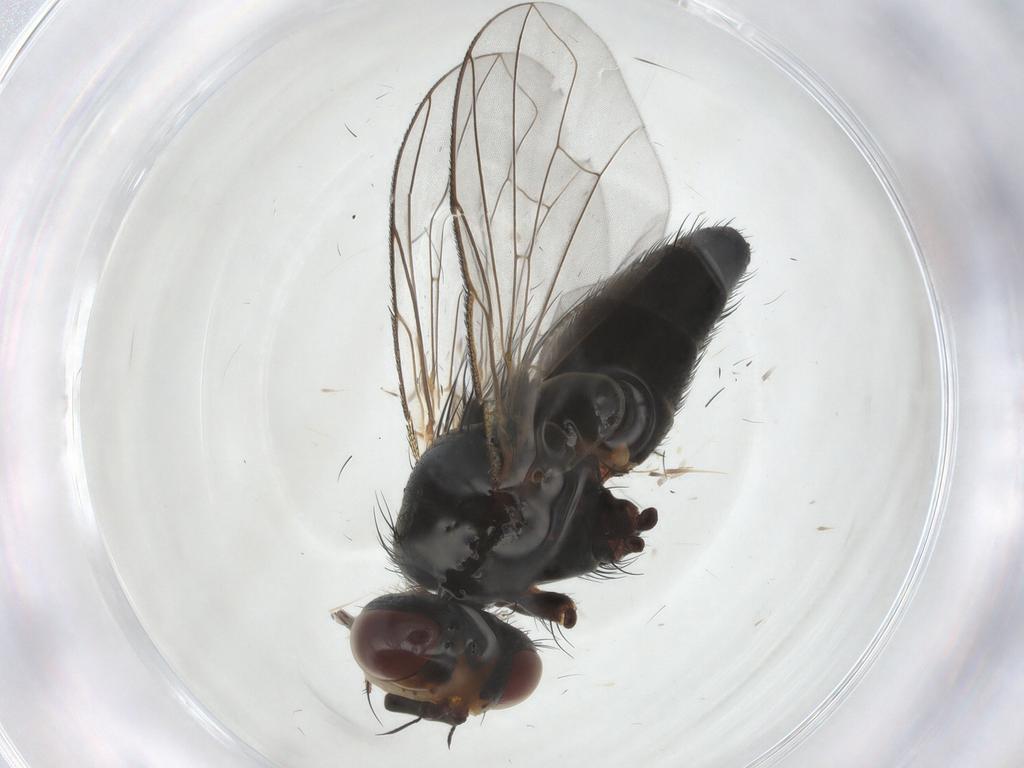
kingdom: Animalia
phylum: Arthropoda
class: Insecta
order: Diptera
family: Tachinidae
